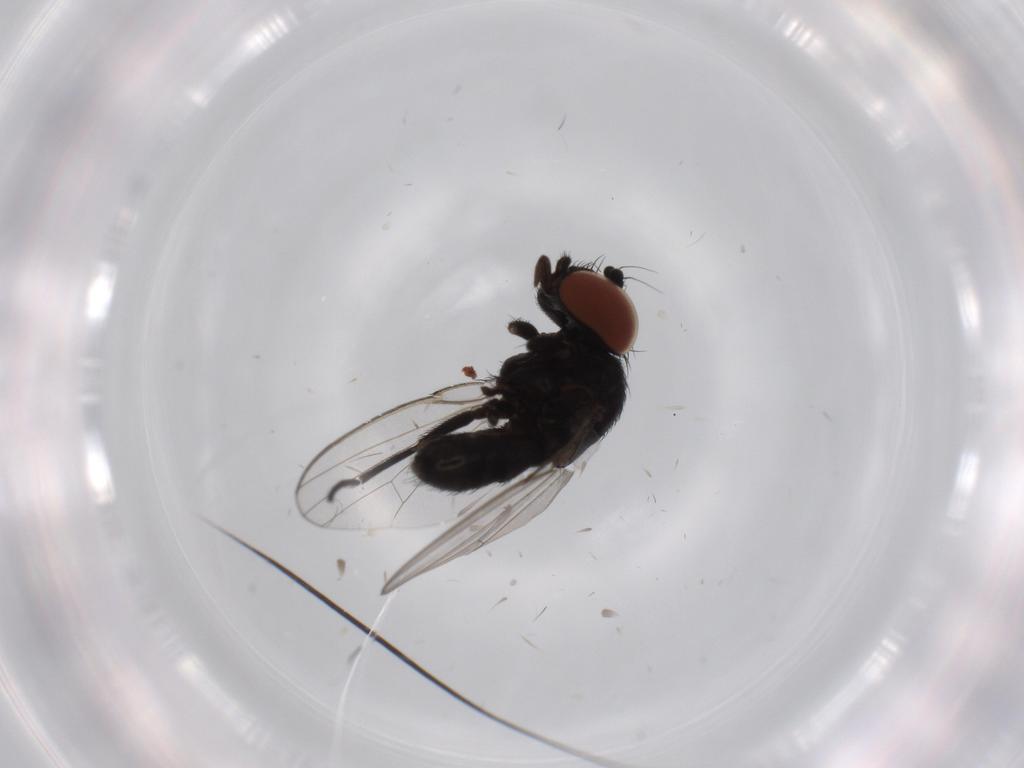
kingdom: Animalia
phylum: Arthropoda
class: Insecta
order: Diptera
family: Milichiidae
